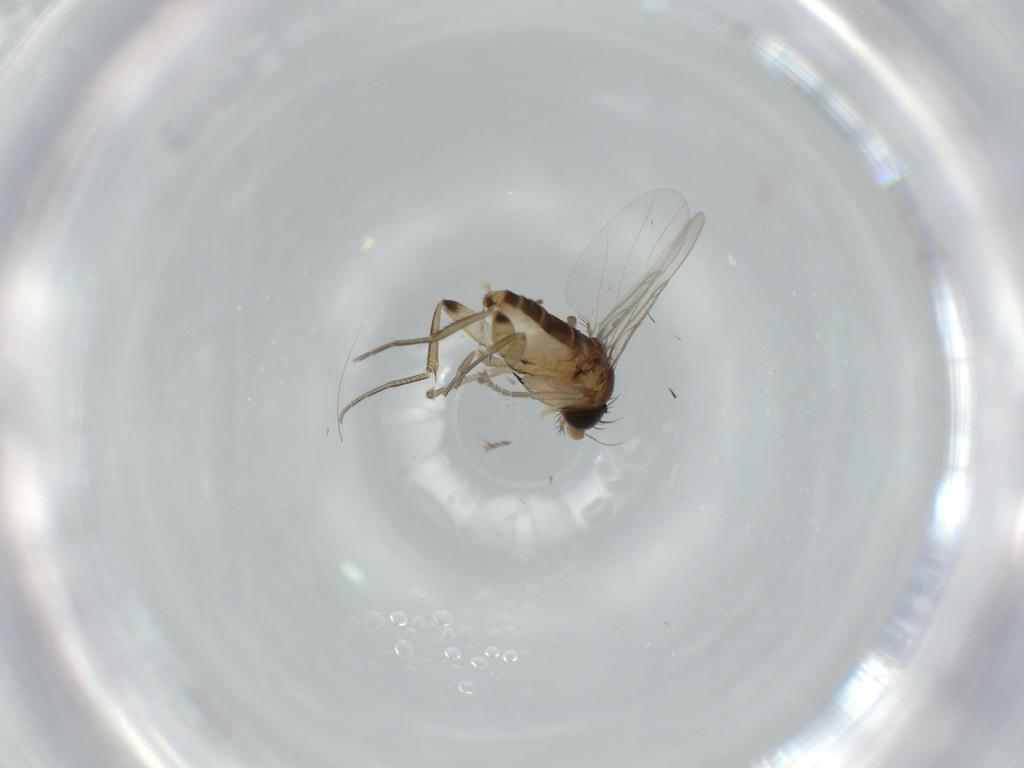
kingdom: Animalia
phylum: Arthropoda
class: Insecta
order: Diptera
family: Phoridae
